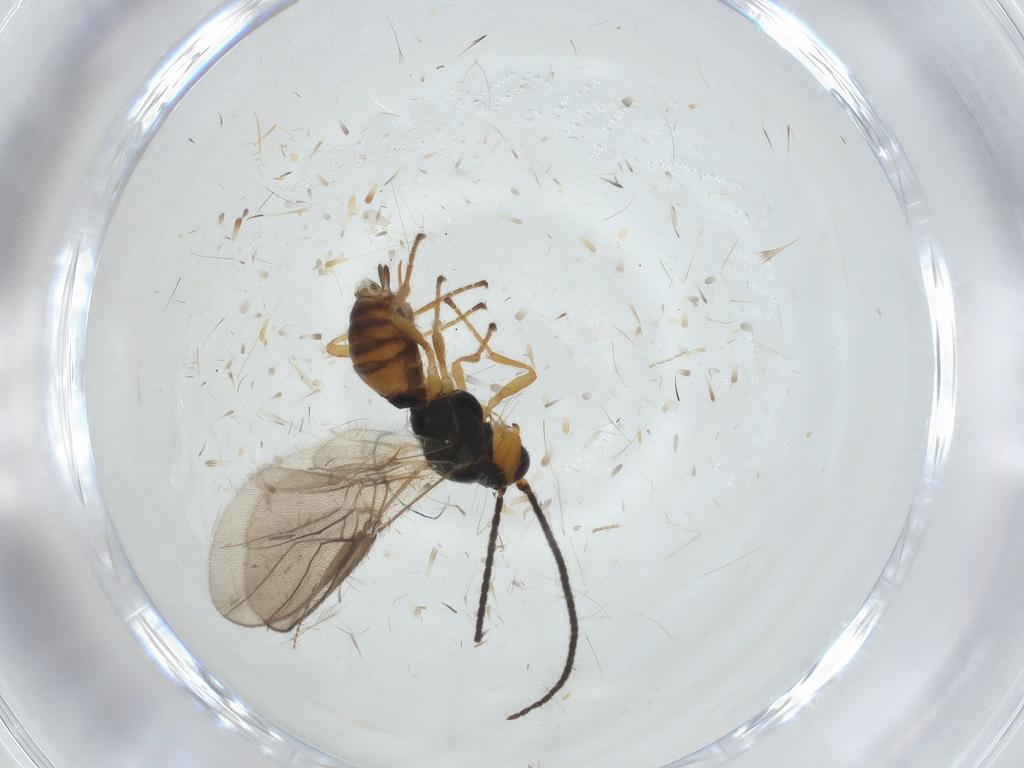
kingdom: Animalia
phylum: Arthropoda
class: Insecta
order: Hymenoptera
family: Braconidae
